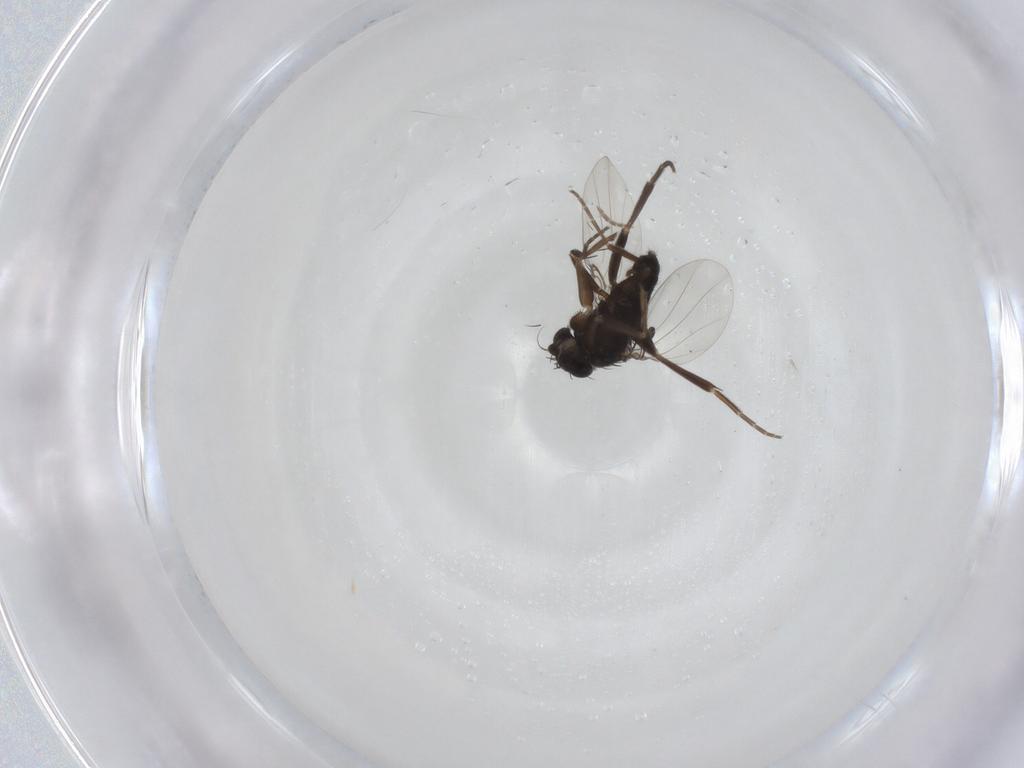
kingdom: Animalia
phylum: Arthropoda
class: Insecta
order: Diptera
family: Phoridae
